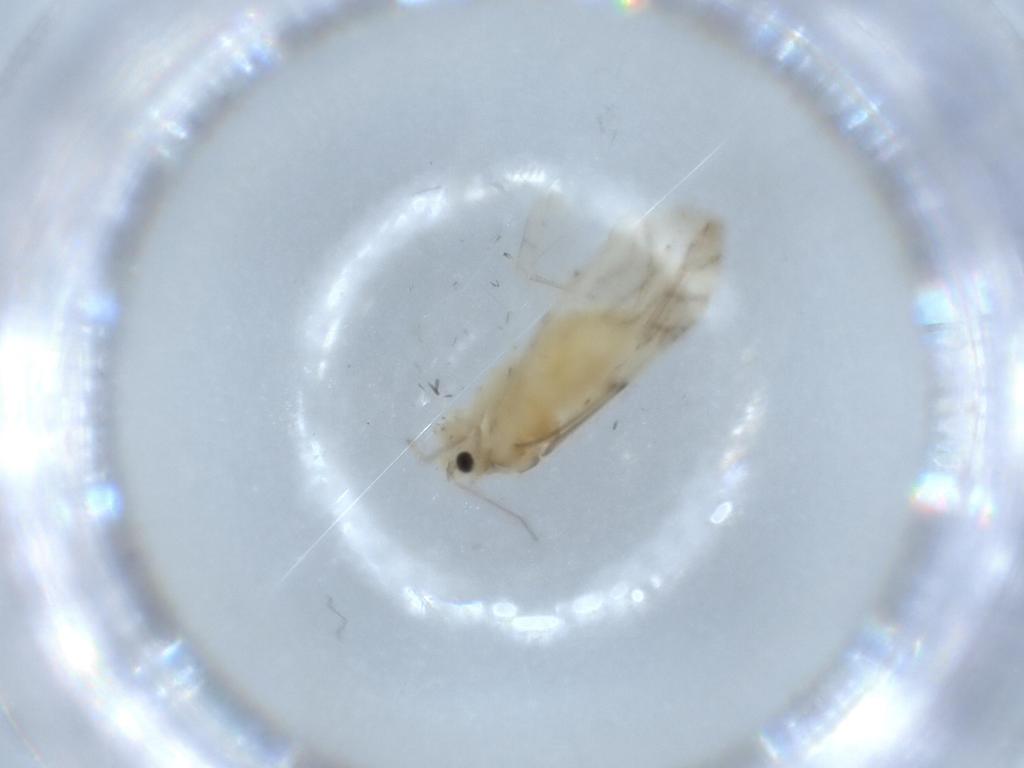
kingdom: Animalia
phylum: Arthropoda
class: Insecta
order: Psocodea
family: Caeciliusidae
